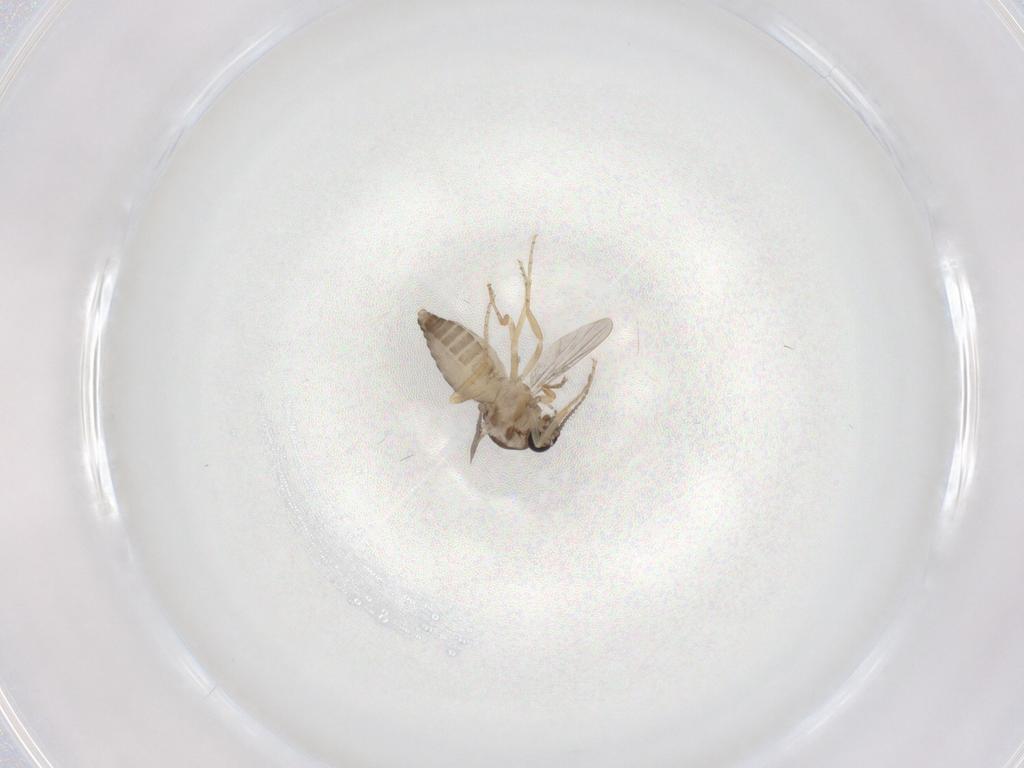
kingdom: Animalia
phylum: Arthropoda
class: Insecta
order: Diptera
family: Ceratopogonidae
